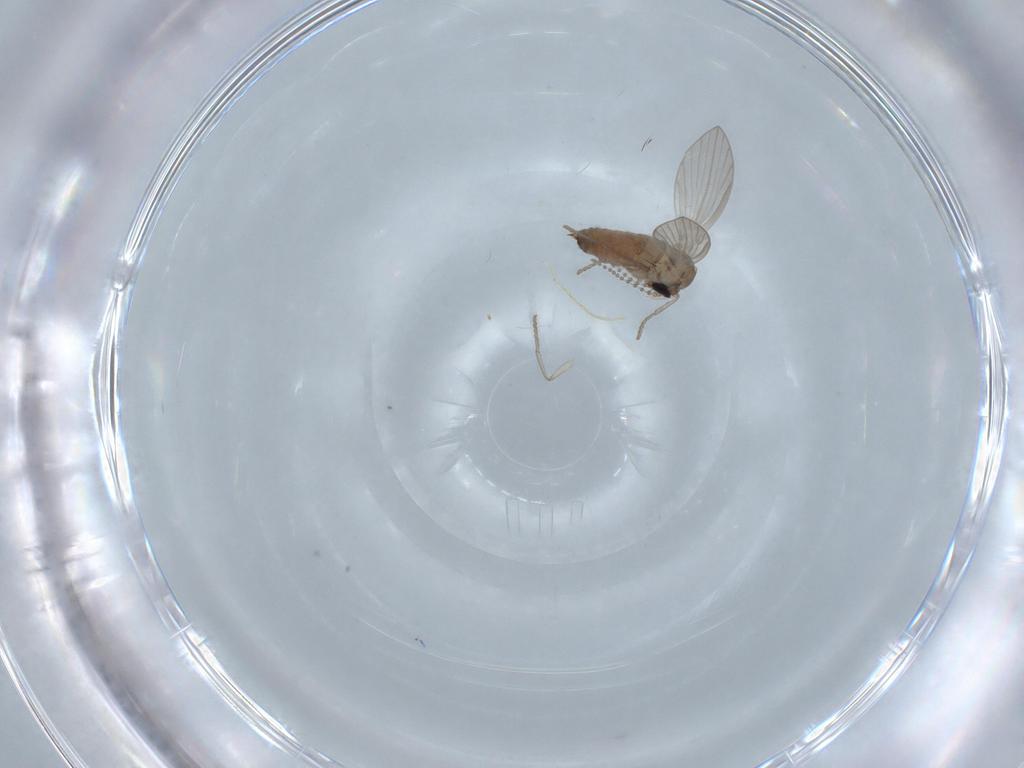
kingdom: Animalia
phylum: Arthropoda
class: Insecta
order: Diptera
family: Psychodidae
